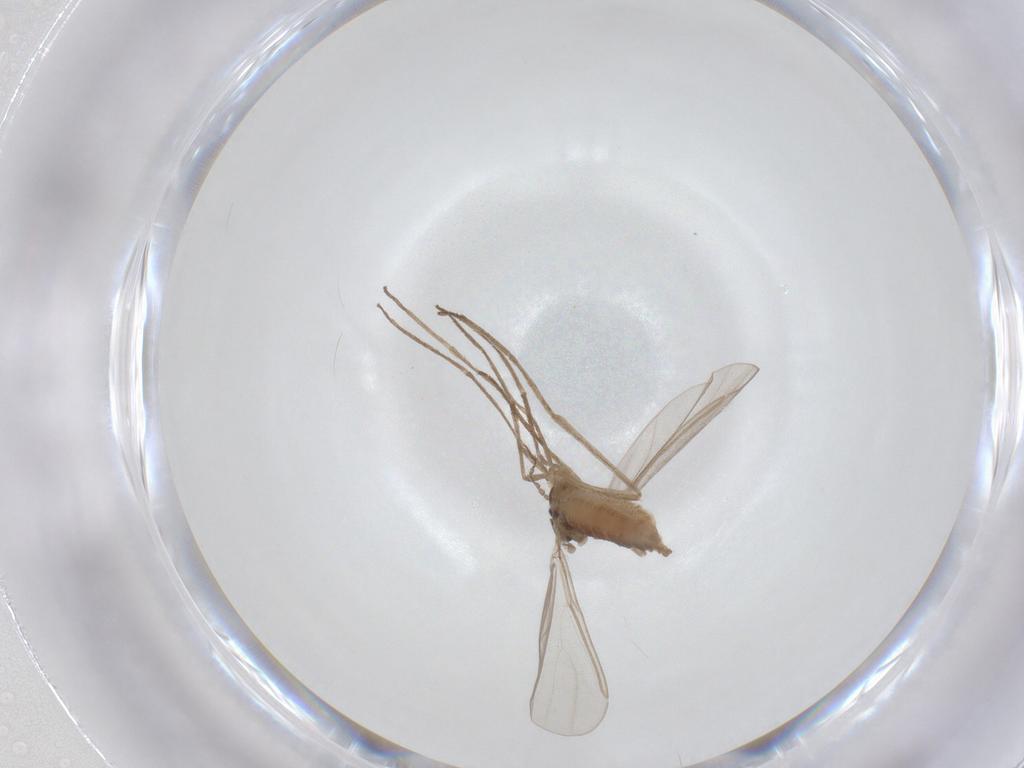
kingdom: Animalia
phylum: Arthropoda
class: Insecta
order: Diptera
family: Cecidomyiidae
